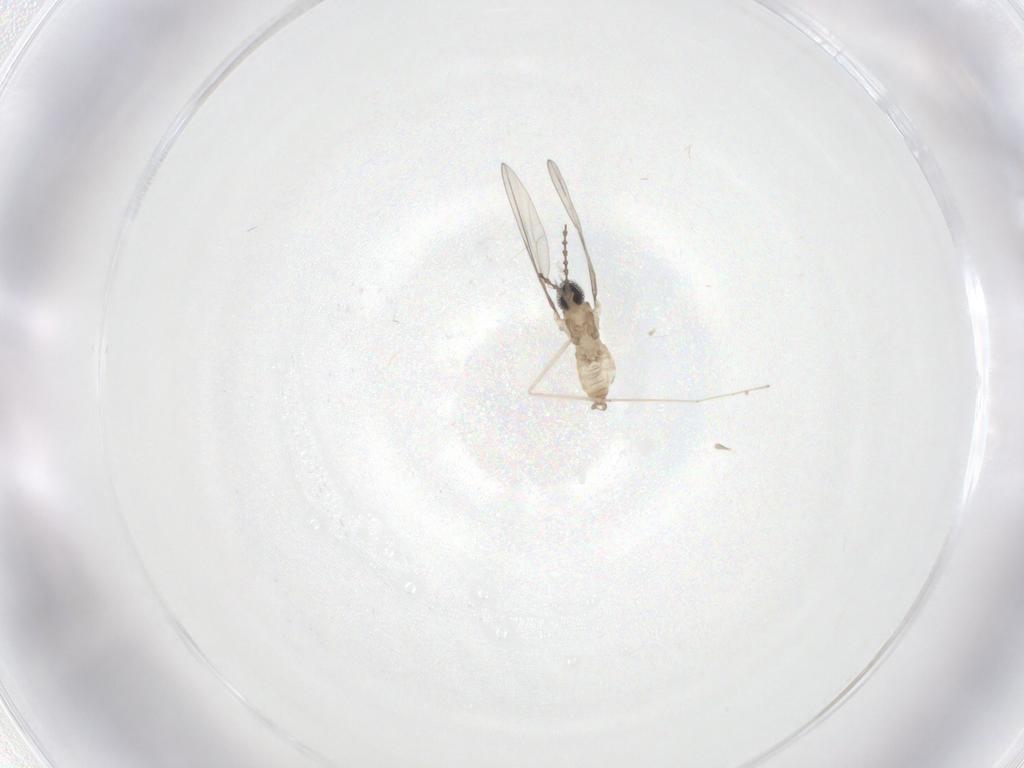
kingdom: Animalia
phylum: Arthropoda
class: Insecta
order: Diptera
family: Cecidomyiidae
